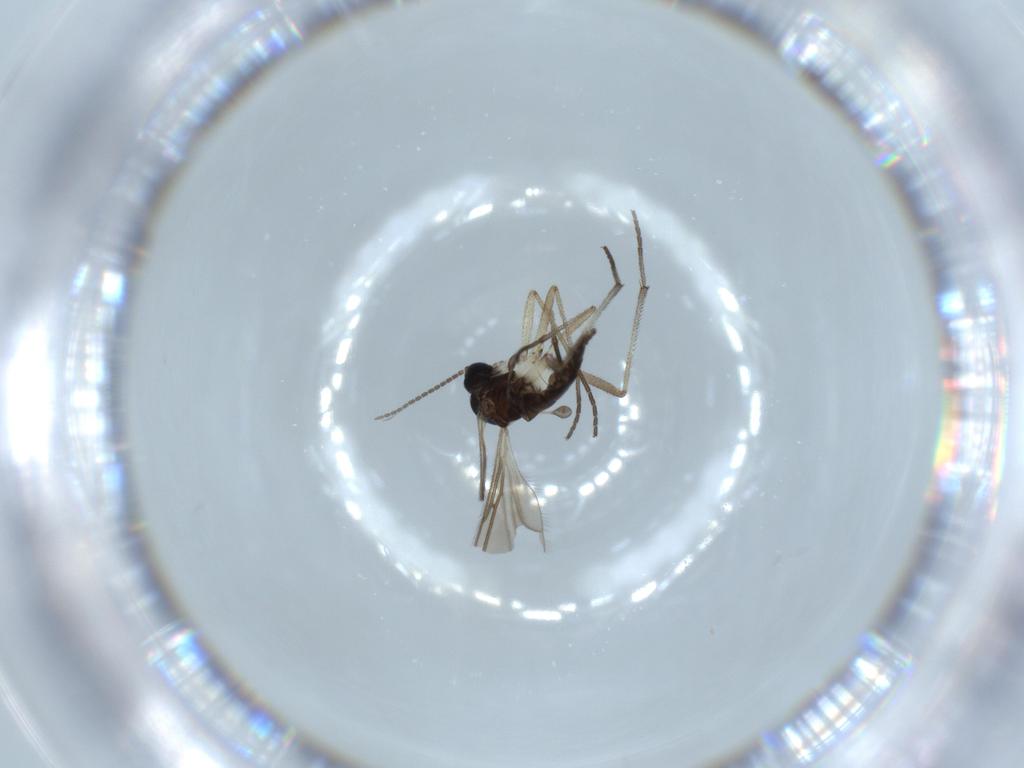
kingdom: Animalia
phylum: Arthropoda
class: Insecta
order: Diptera
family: Sciaridae
